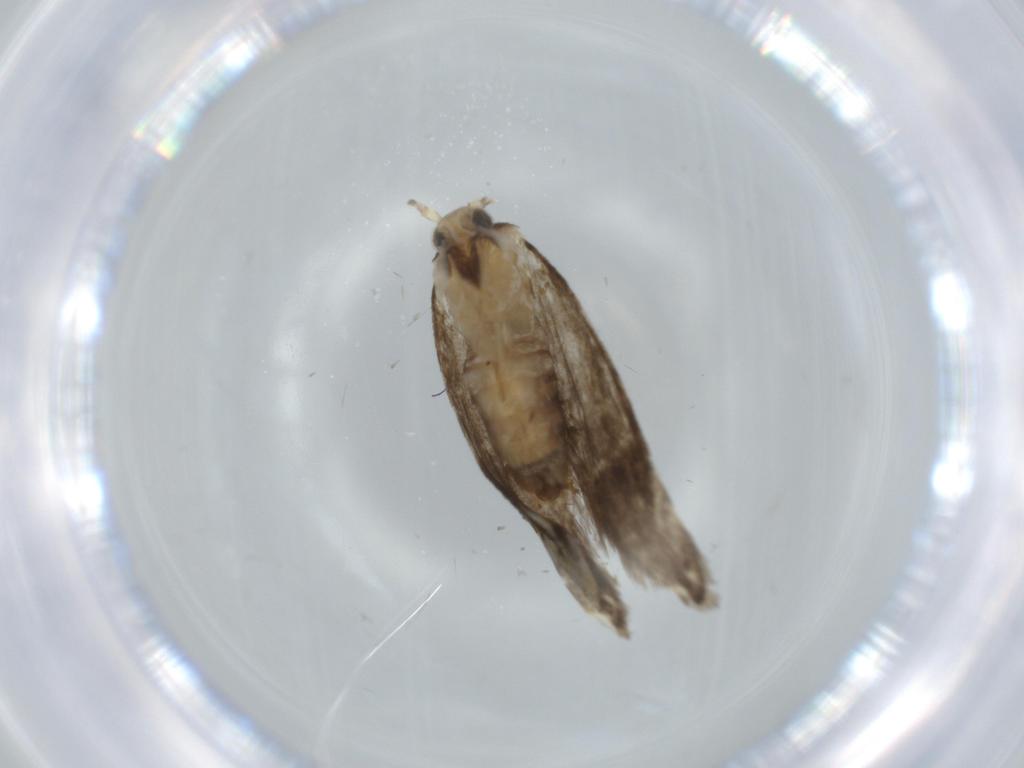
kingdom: Animalia
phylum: Arthropoda
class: Insecta
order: Lepidoptera
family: Tineidae
